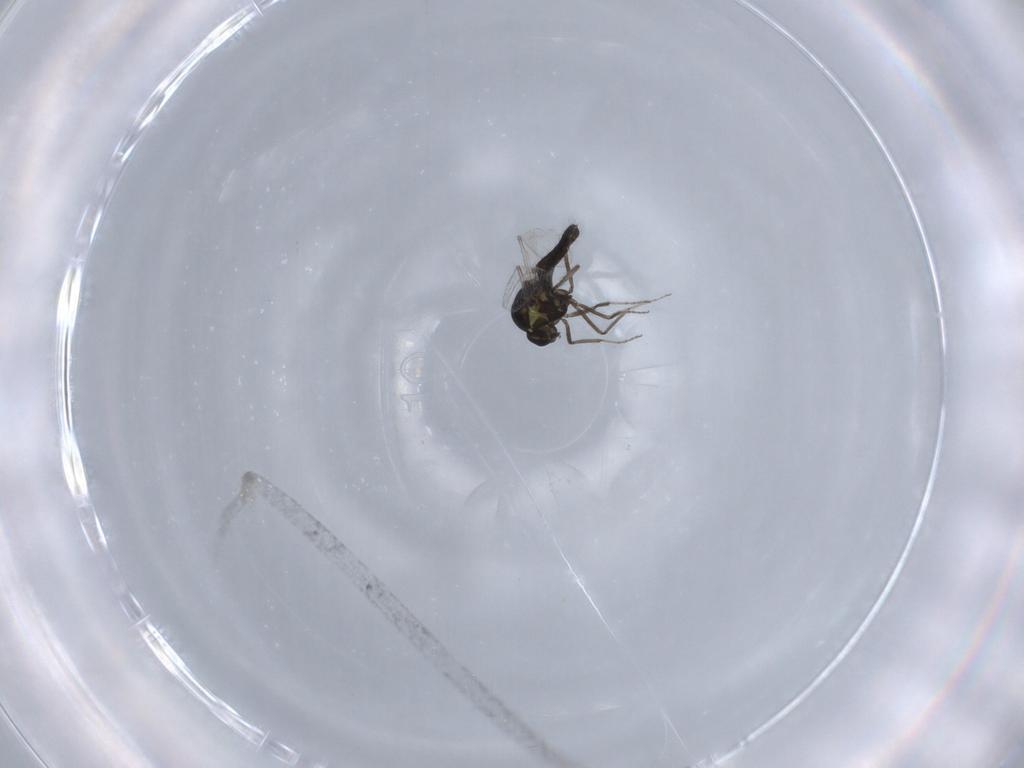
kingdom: Animalia
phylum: Arthropoda
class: Insecta
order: Diptera
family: Ceratopogonidae
